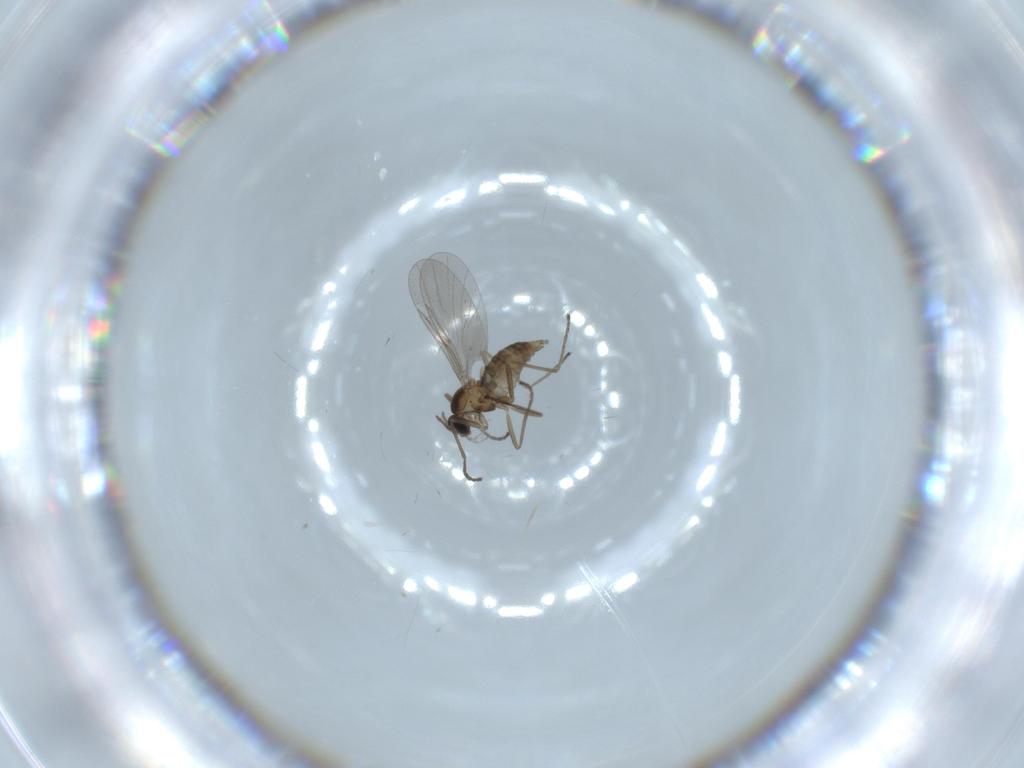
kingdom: Animalia
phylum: Arthropoda
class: Insecta
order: Diptera
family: Cecidomyiidae
